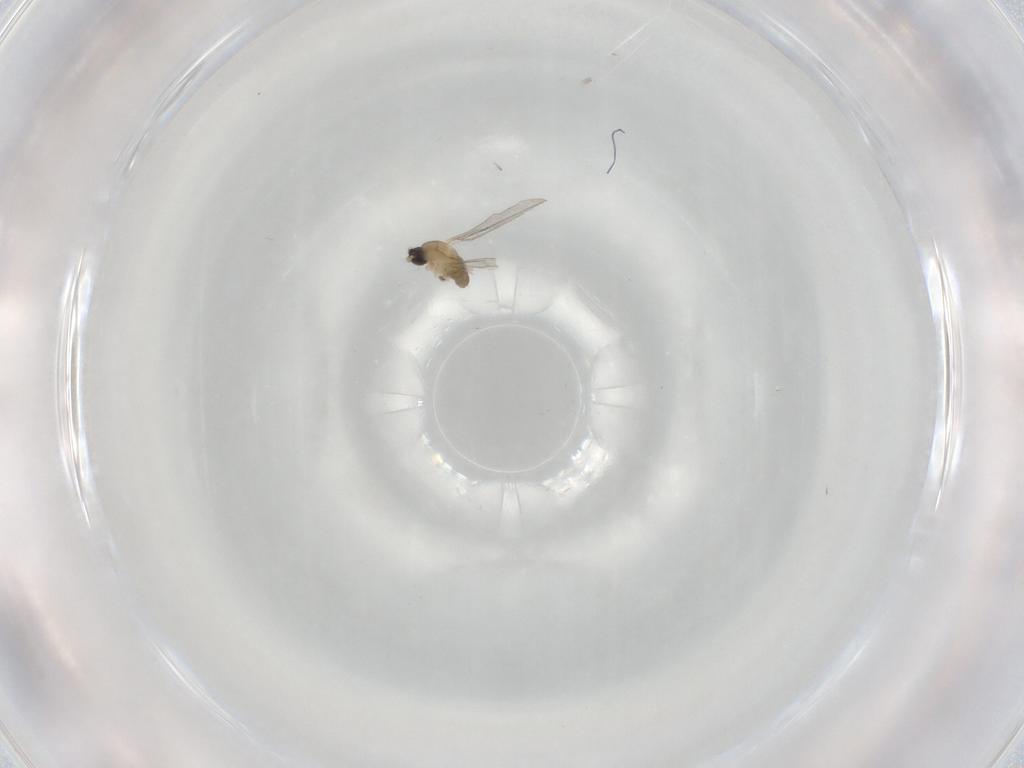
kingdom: Animalia
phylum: Arthropoda
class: Insecta
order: Diptera
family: Cecidomyiidae
